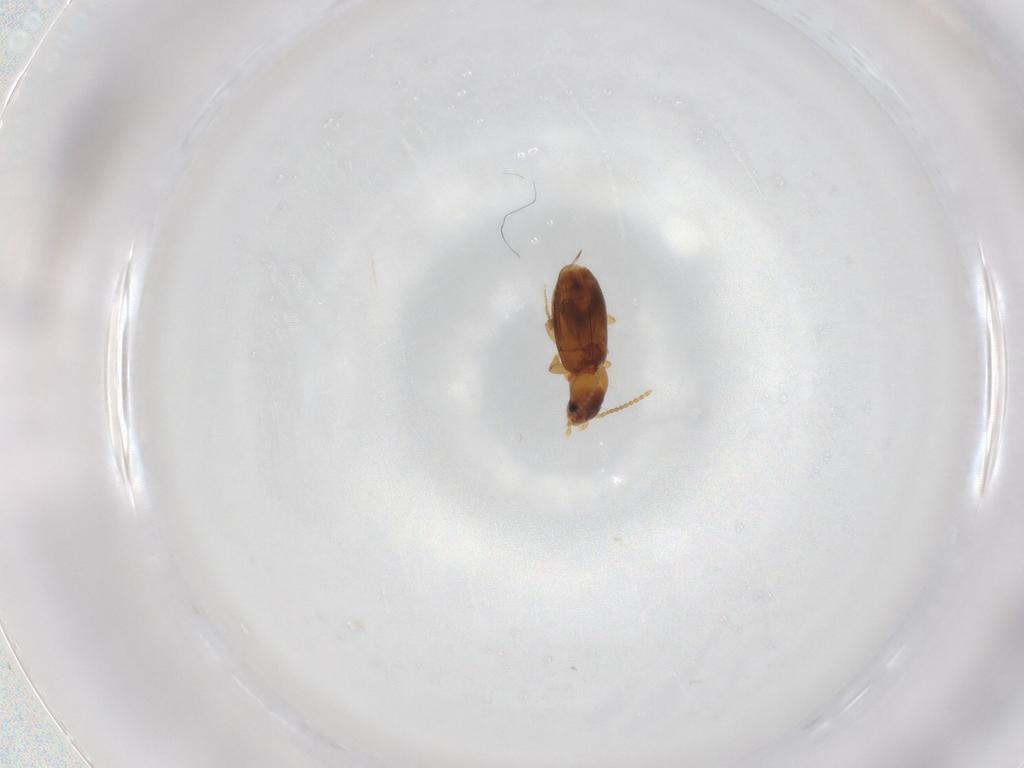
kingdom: Animalia
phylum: Arthropoda
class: Insecta
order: Coleoptera
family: Carabidae
